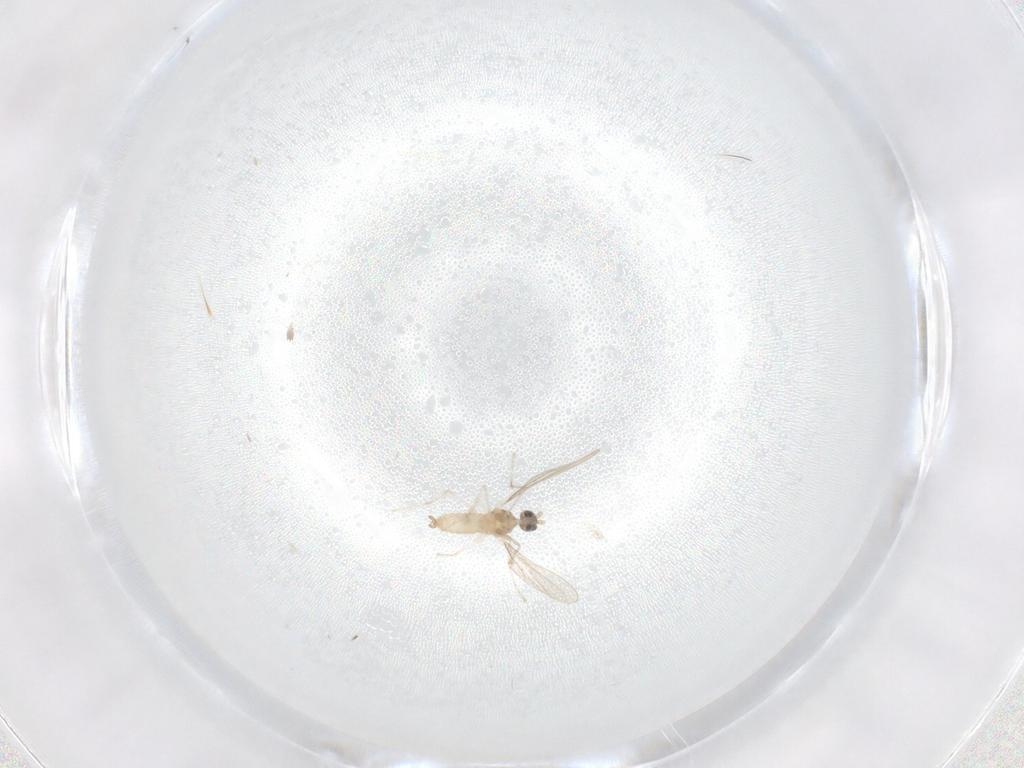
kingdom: Animalia
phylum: Arthropoda
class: Insecta
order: Diptera
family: Cecidomyiidae
